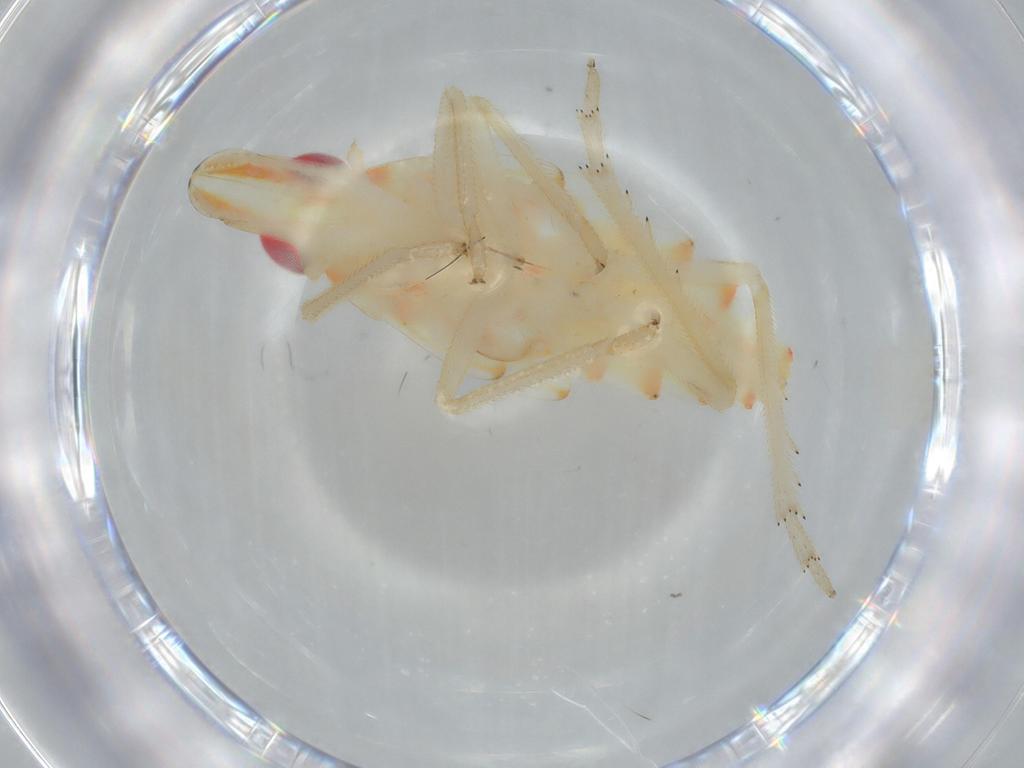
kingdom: Animalia
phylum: Arthropoda
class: Insecta
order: Hemiptera
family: Tropiduchidae
